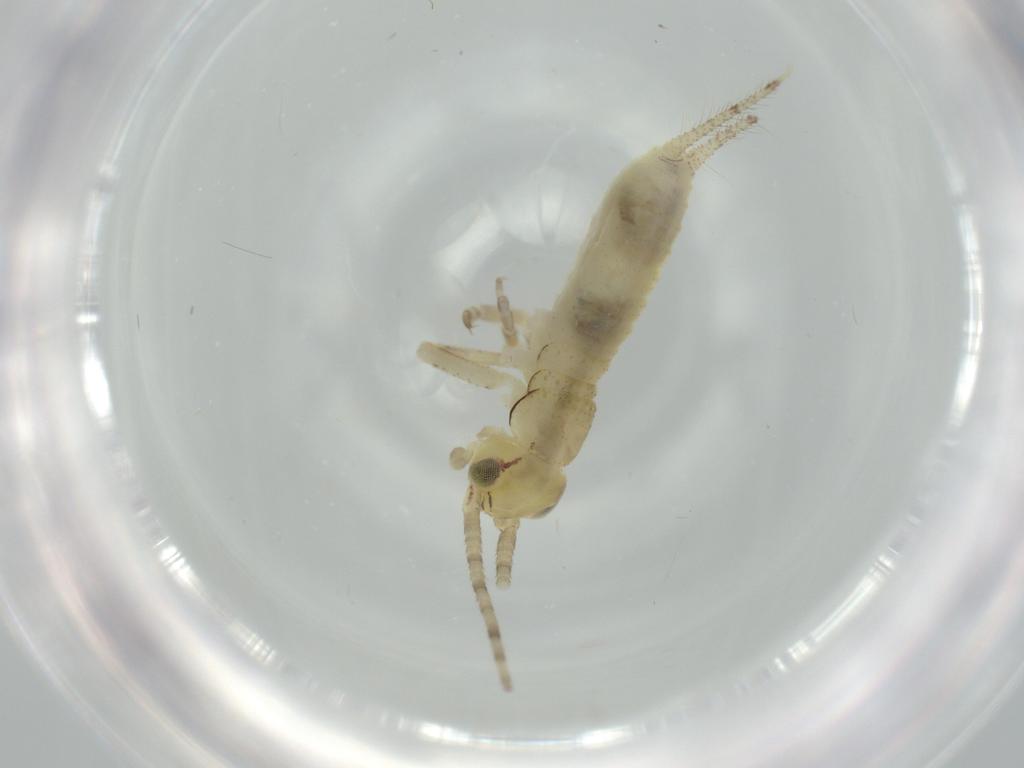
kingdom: Animalia
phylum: Arthropoda
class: Insecta
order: Orthoptera
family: Gryllidae
